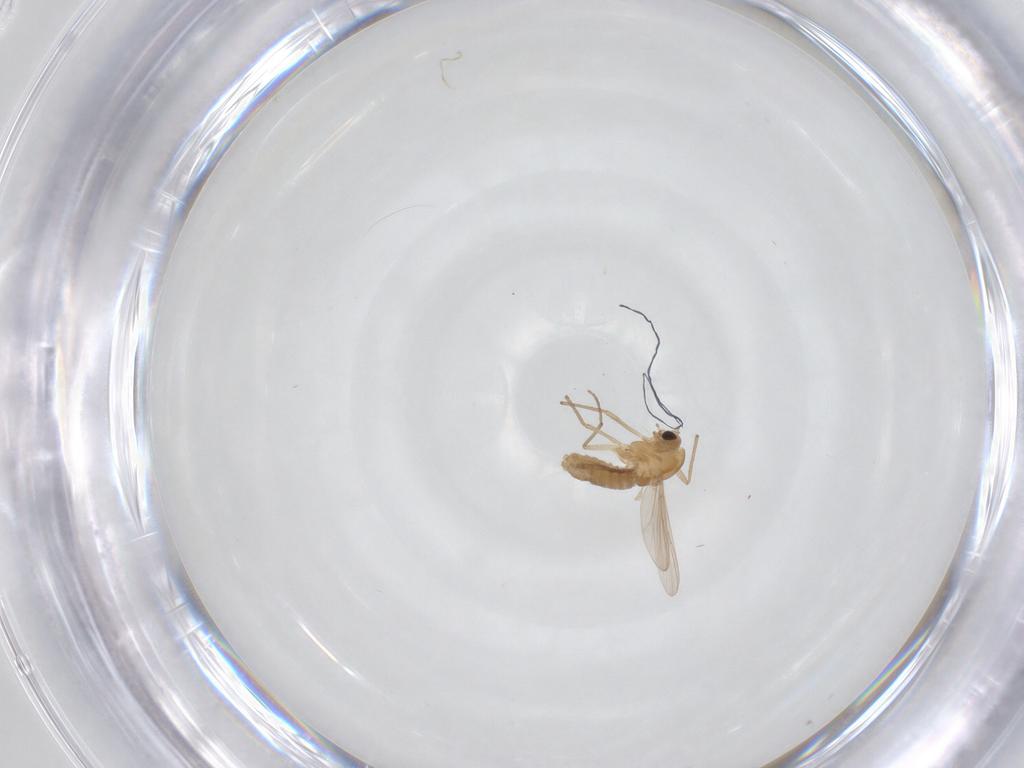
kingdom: Animalia
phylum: Arthropoda
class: Insecta
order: Diptera
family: Chironomidae
